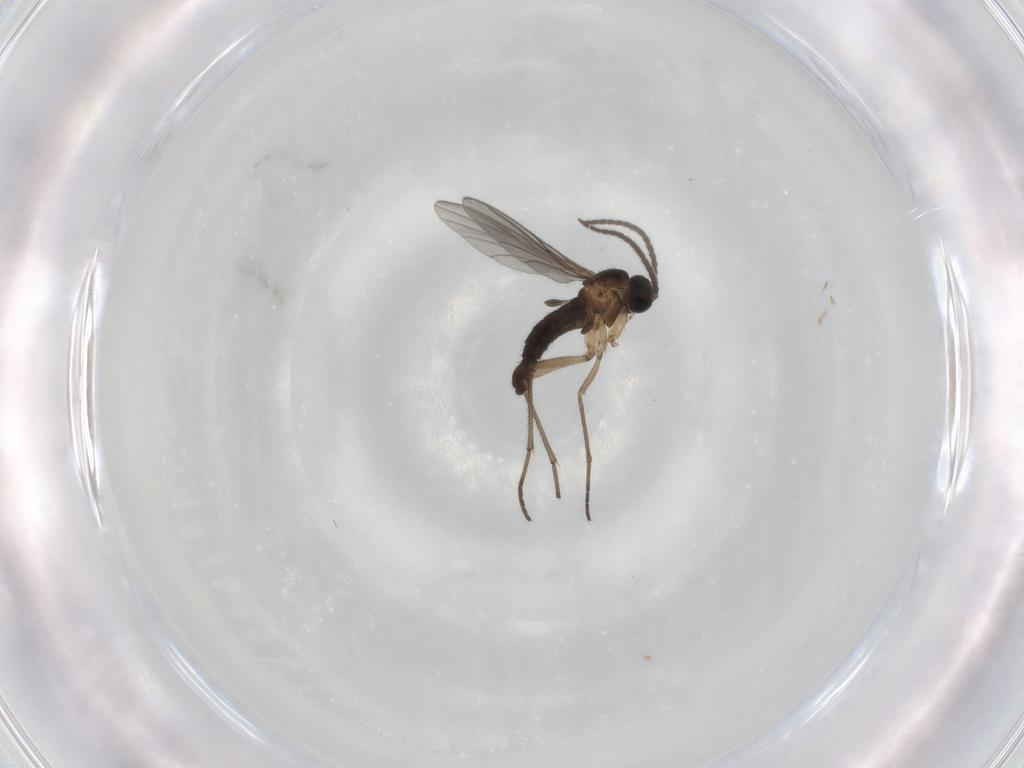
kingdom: Animalia
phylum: Arthropoda
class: Insecta
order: Diptera
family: Sciaridae
